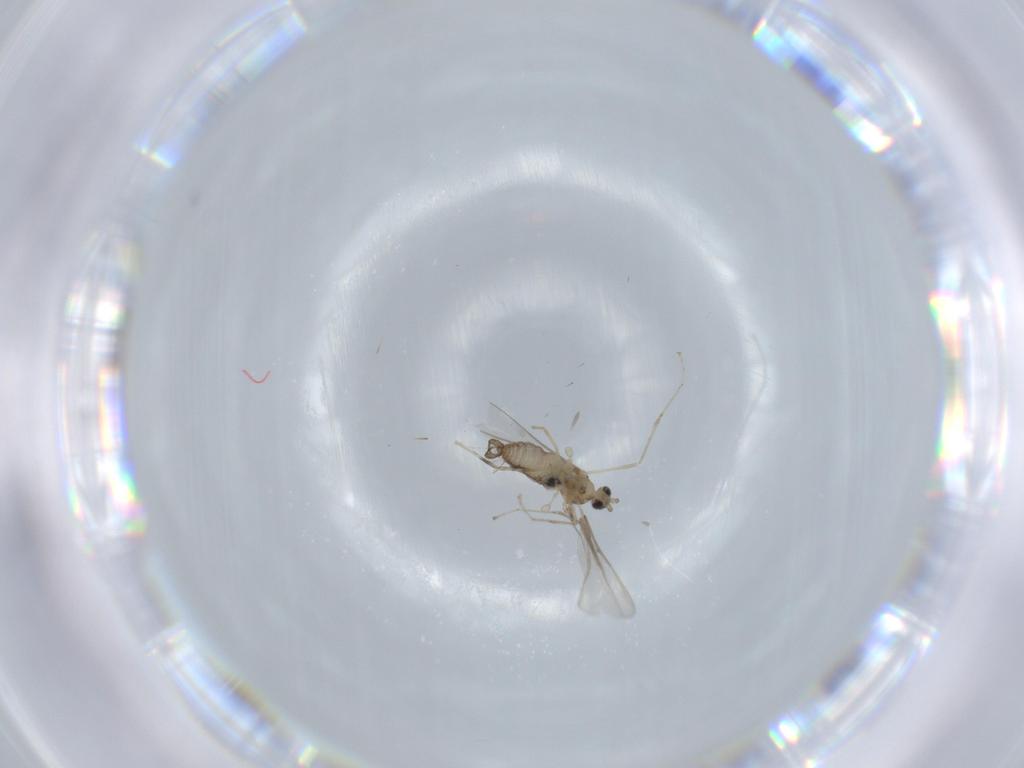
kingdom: Animalia
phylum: Arthropoda
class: Insecta
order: Diptera
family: Cecidomyiidae
